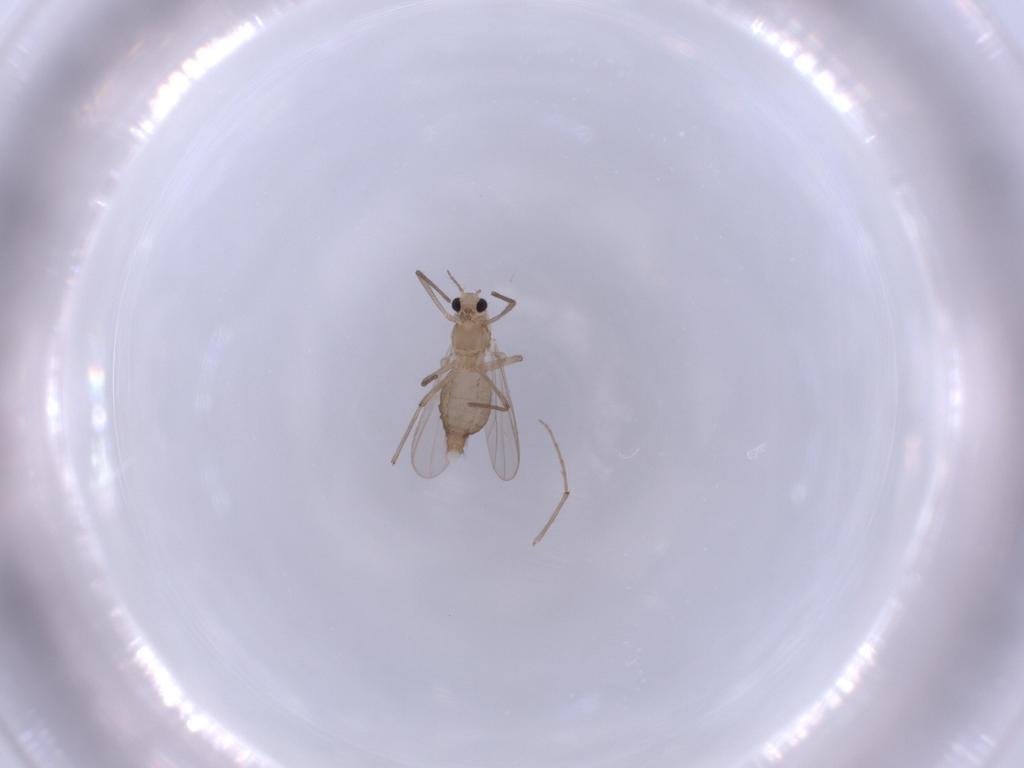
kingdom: Animalia
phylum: Arthropoda
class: Insecta
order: Diptera
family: Chironomidae
